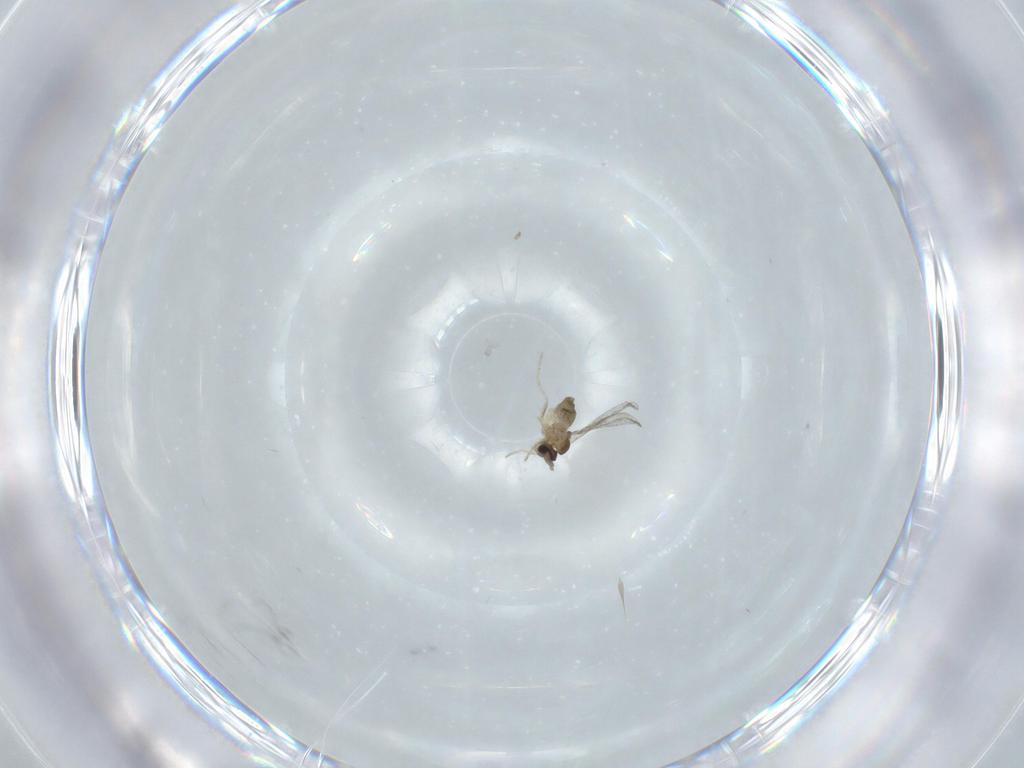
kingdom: Animalia
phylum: Arthropoda
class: Insecta
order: Diptera
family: Cecidomyiidae
